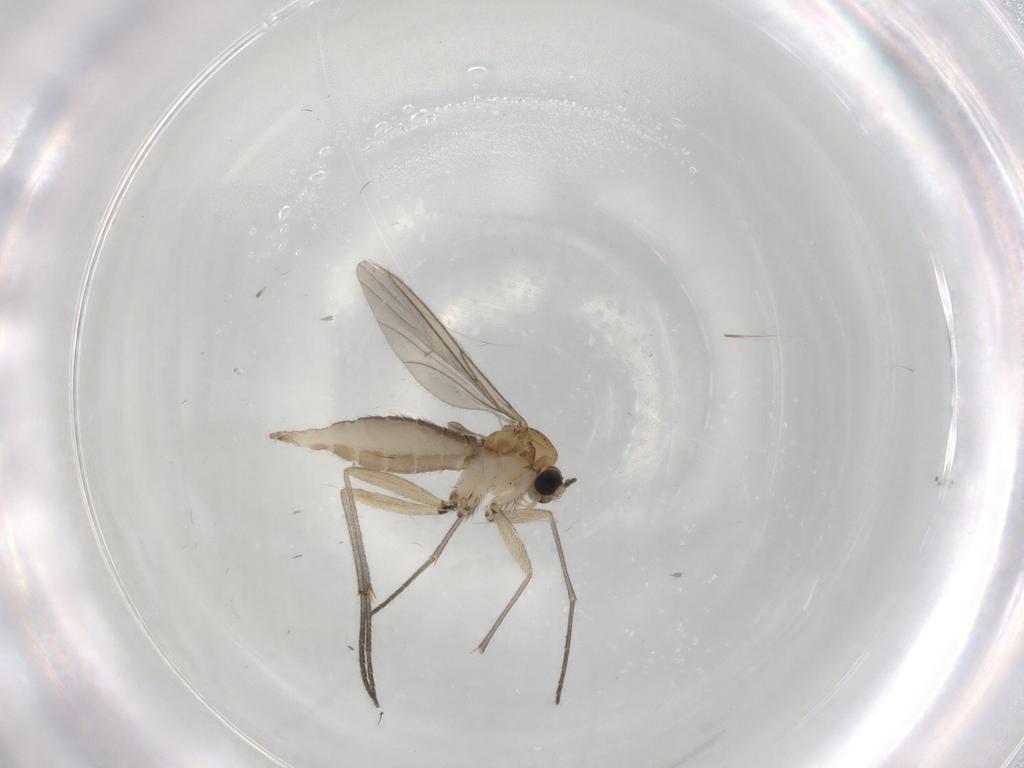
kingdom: Animalia
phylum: Arthropoda
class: Insecta
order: Diptera
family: Sciaridae
